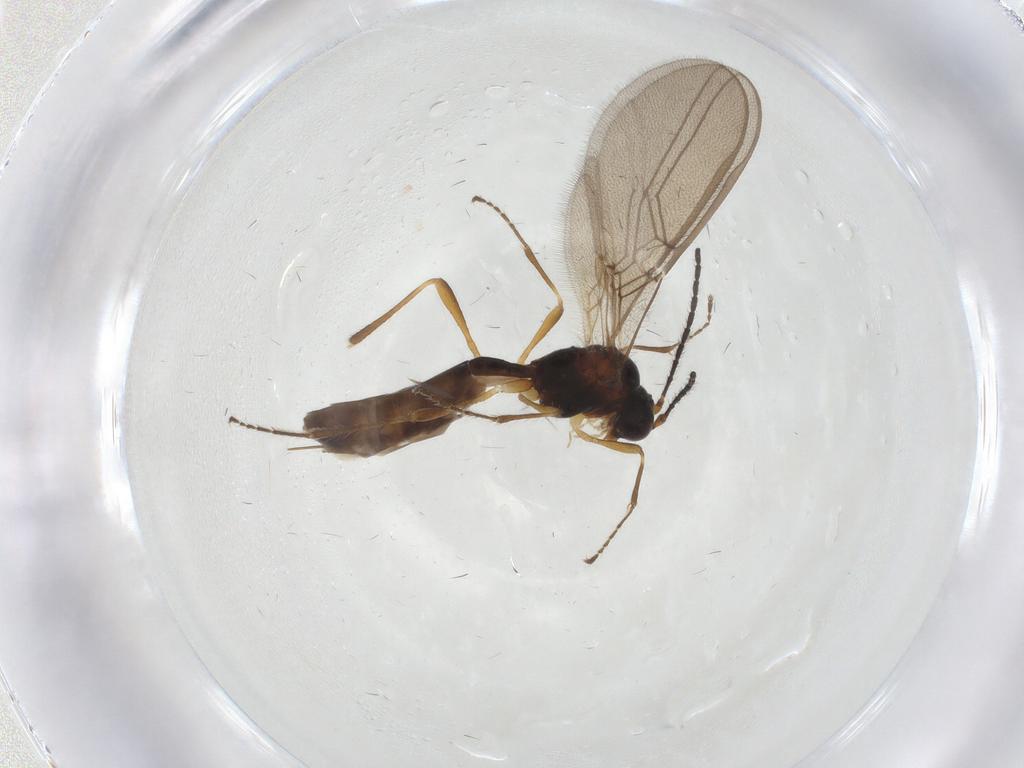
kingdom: Animalia
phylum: Arthropoda
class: Insecta
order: Hymenoptera
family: Braconidae
